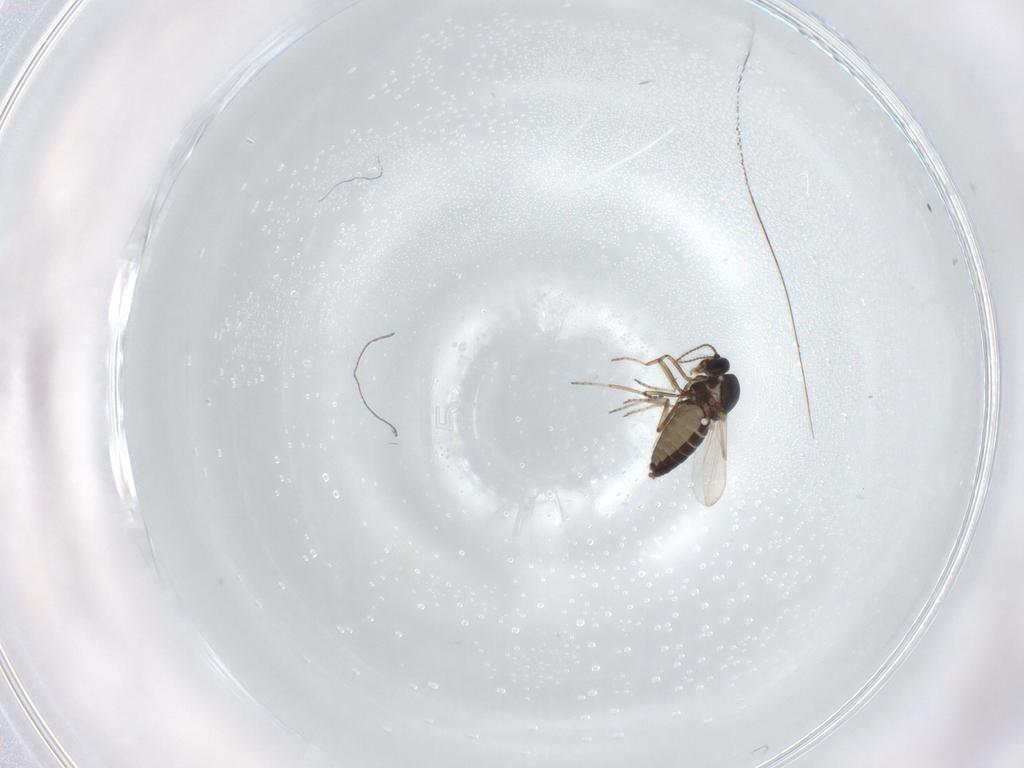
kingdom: Animalia
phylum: Arthropoda
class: Insecta
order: Diptera
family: Ceratopogonidae
